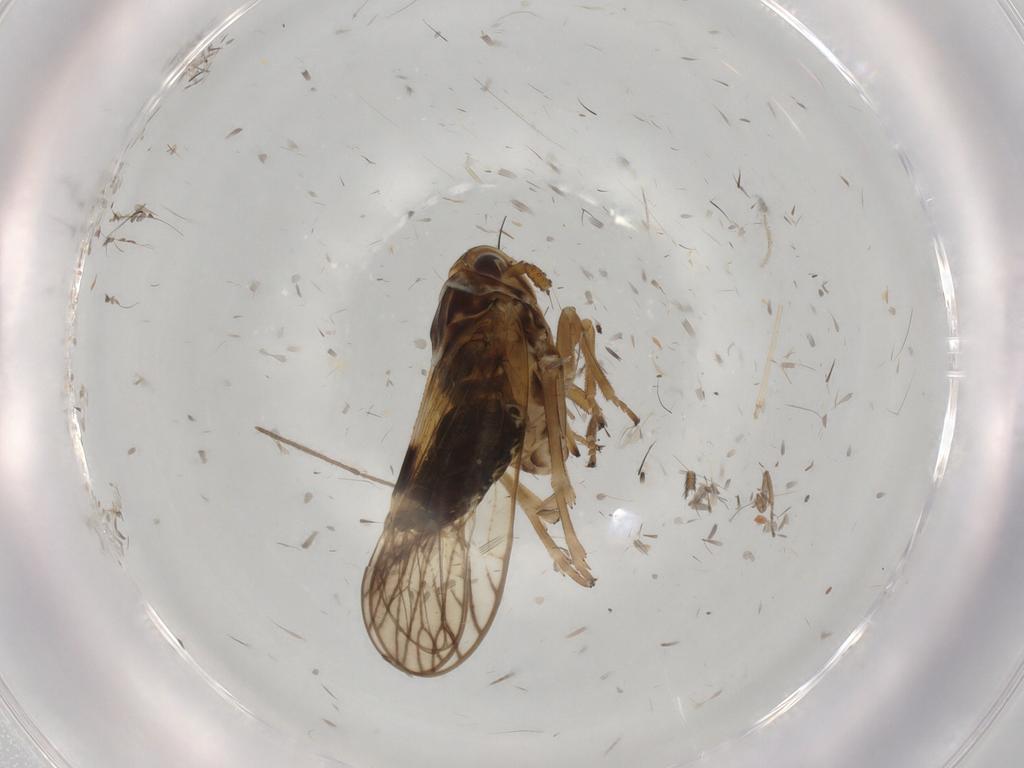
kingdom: Animalia
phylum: Arthropoda
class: Insecta
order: Hemiptera
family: Delphacidae
